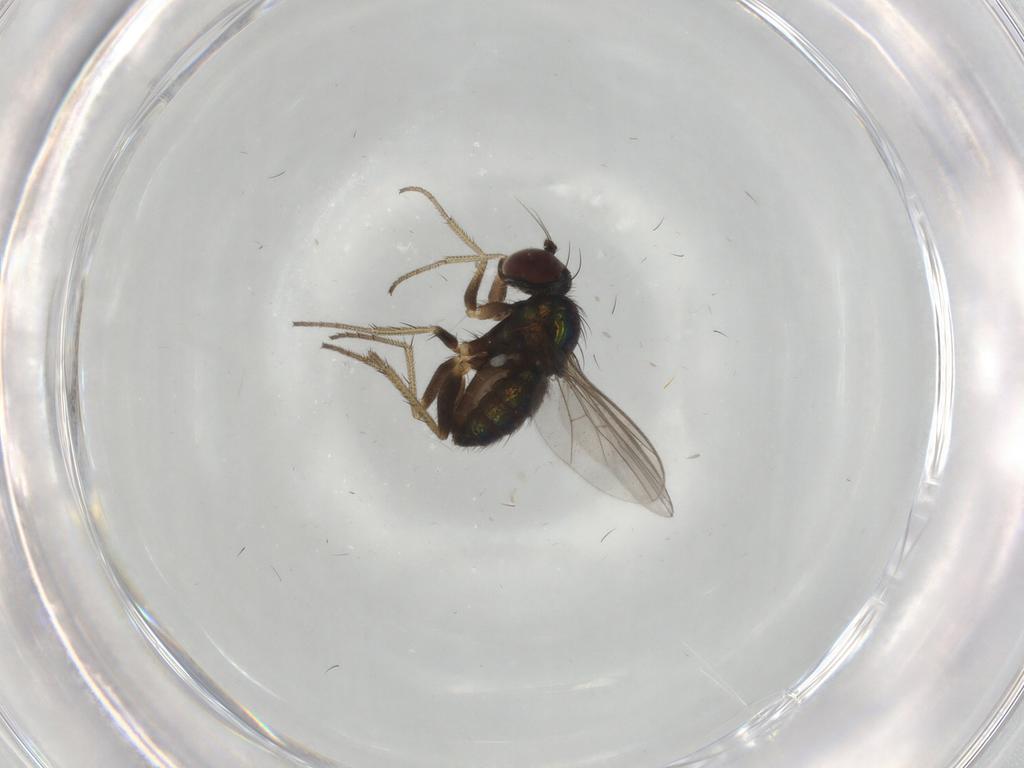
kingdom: Animalia
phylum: Arthropoda
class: Insecta
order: Diptera
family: Dolichopodidae
